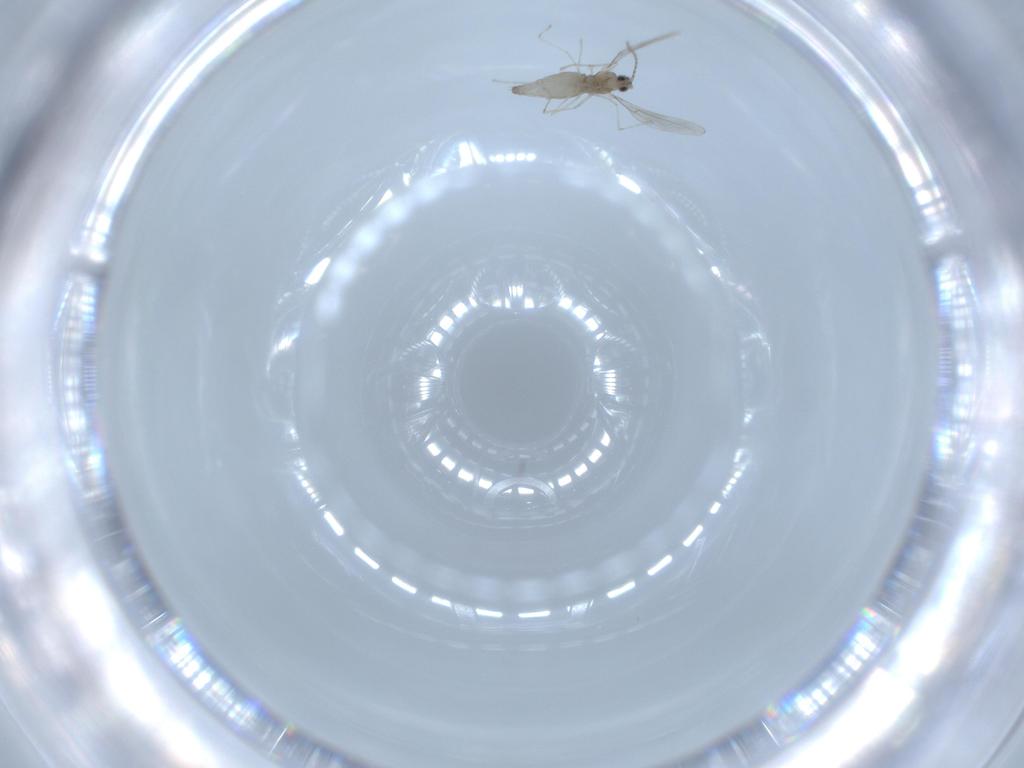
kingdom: Animalia
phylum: Arthropoda
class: Insecta
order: Diptera
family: Cecidomyiidae
